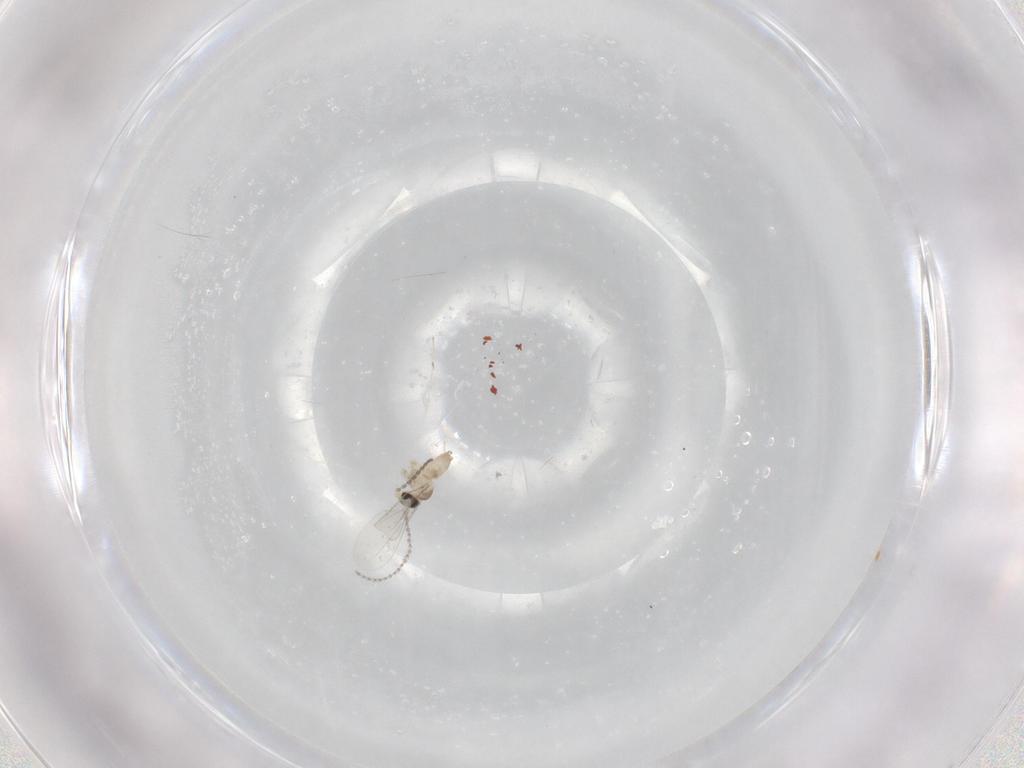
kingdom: Animalia
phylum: Arthropoda
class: Insecta
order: Diptera
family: Cecidomyiidae
